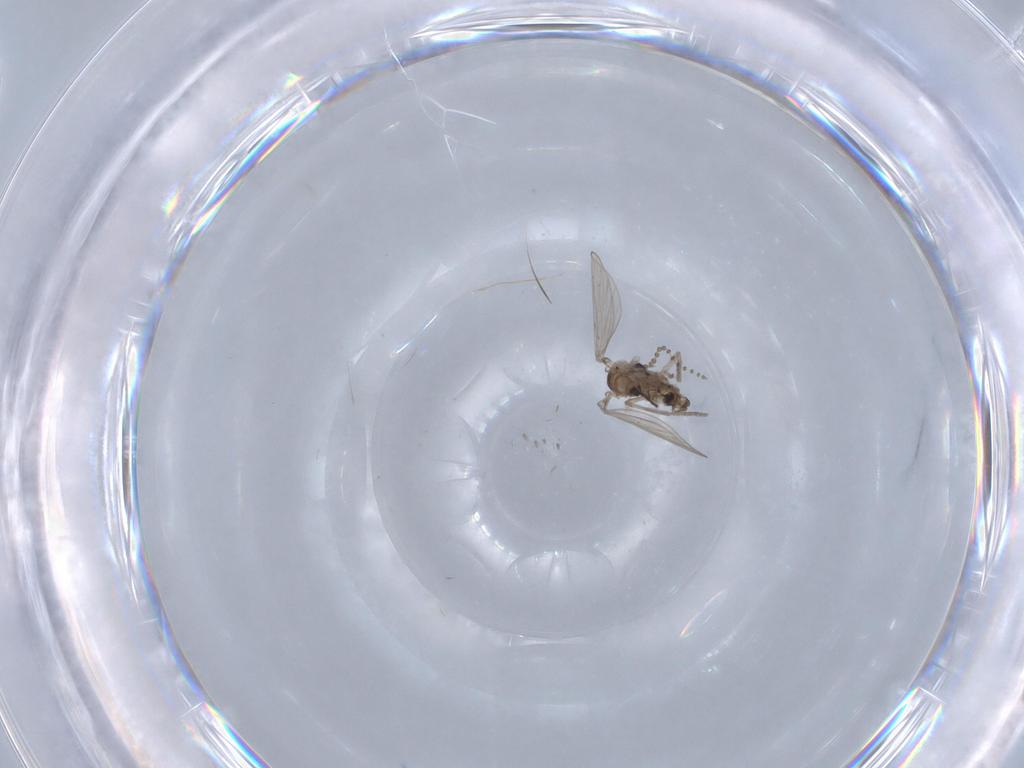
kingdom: Animalia
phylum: Arthropoda
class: Insecta
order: Diptera
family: Psychodidae
